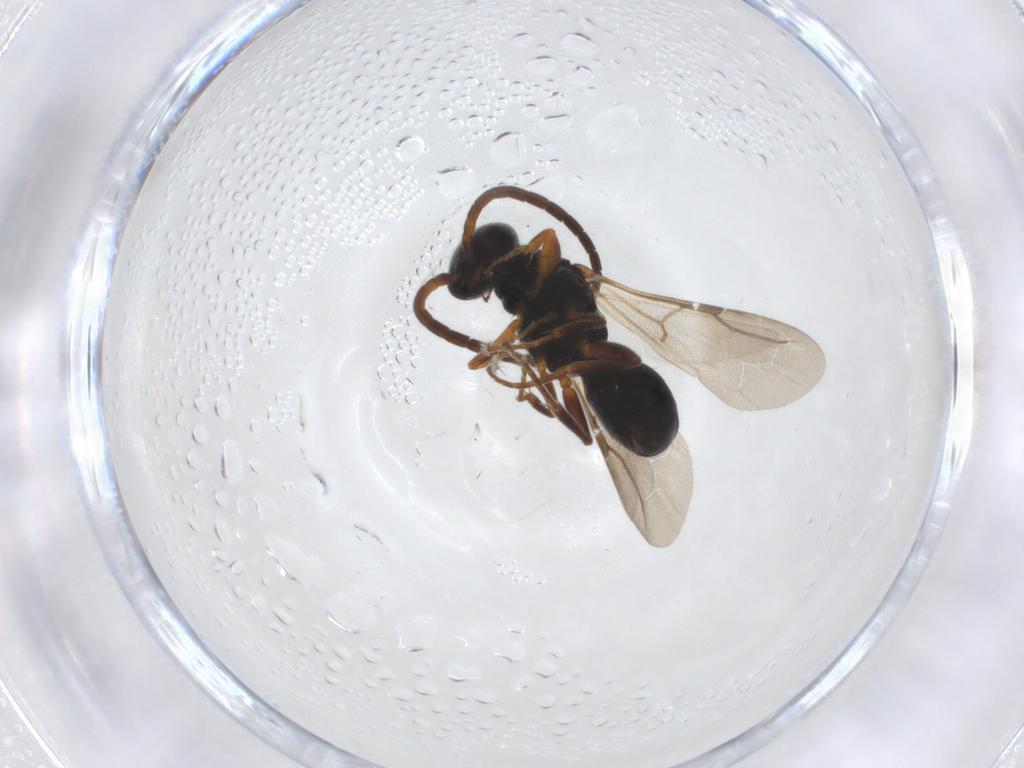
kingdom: Animalia
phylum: Arthropoda
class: Insecta
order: Hymenoptera
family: Bethylidae
